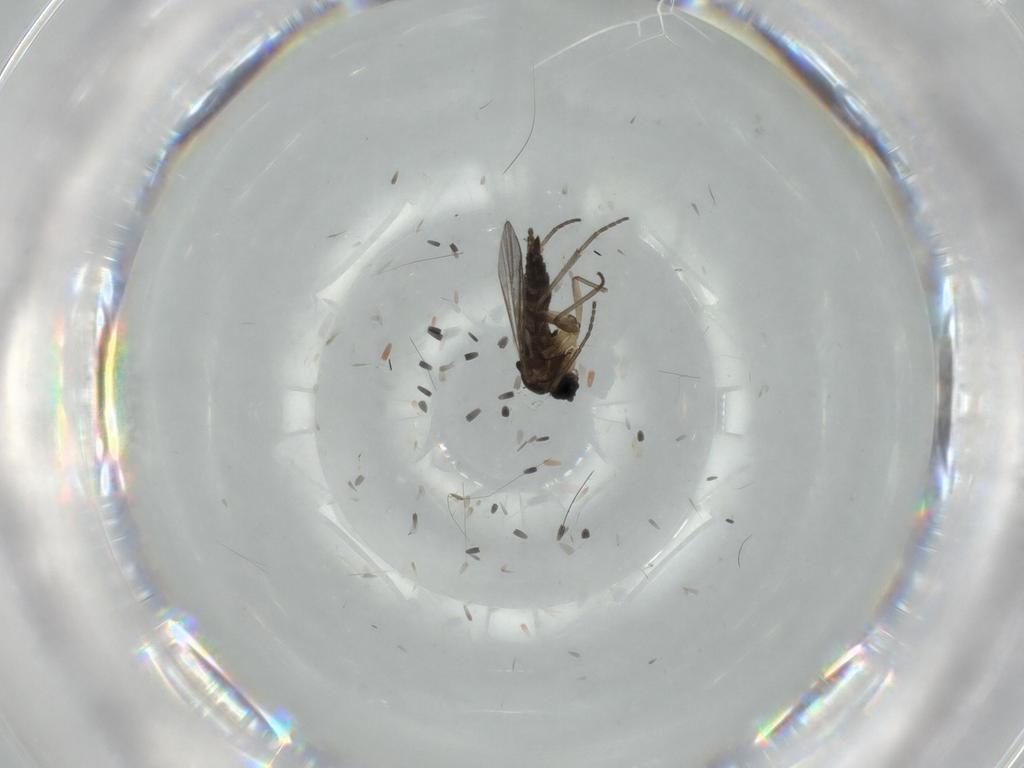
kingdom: Animalia
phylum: Arthropoda
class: Insecta
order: Diptera
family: Sciaridae
